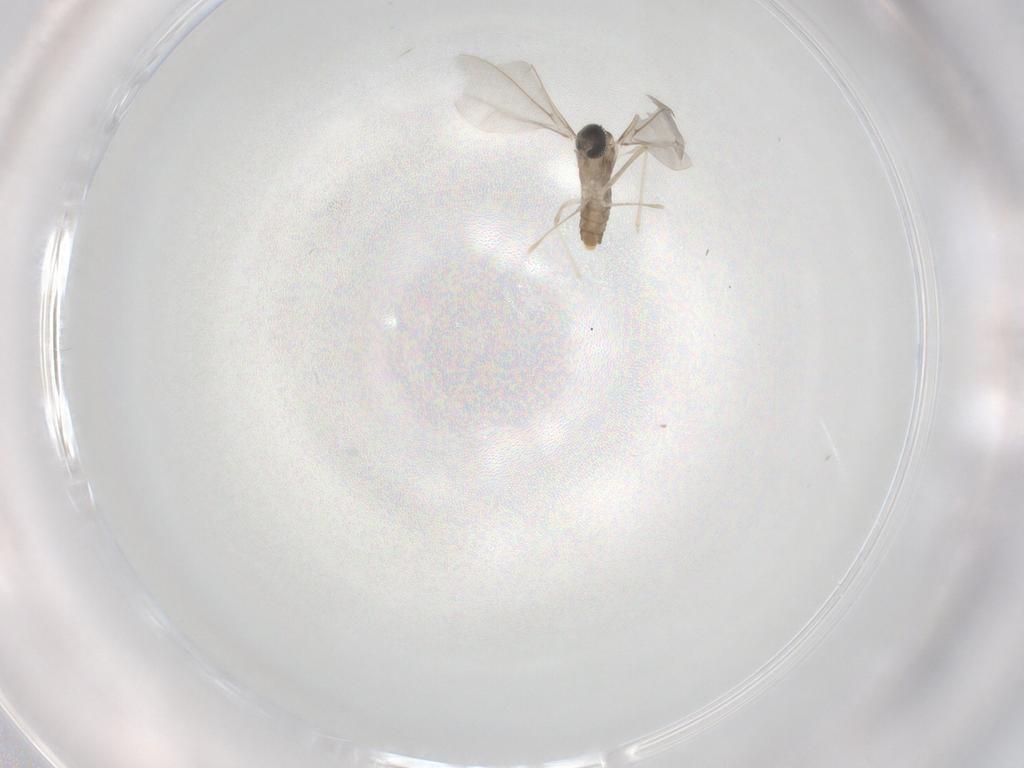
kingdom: Animalia
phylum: Arthropoda
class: Insecta
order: Diptera
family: Cecidomyiidae
